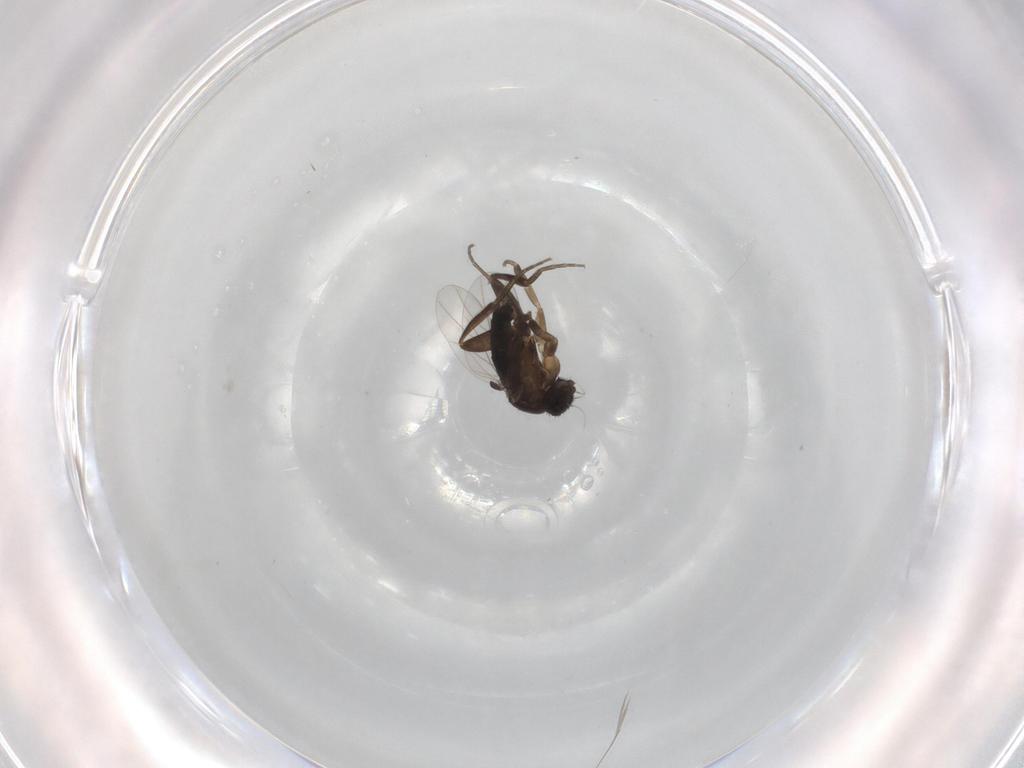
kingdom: Animalia
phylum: Arthropoda
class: Insecta
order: Diptera
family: Phoridae
